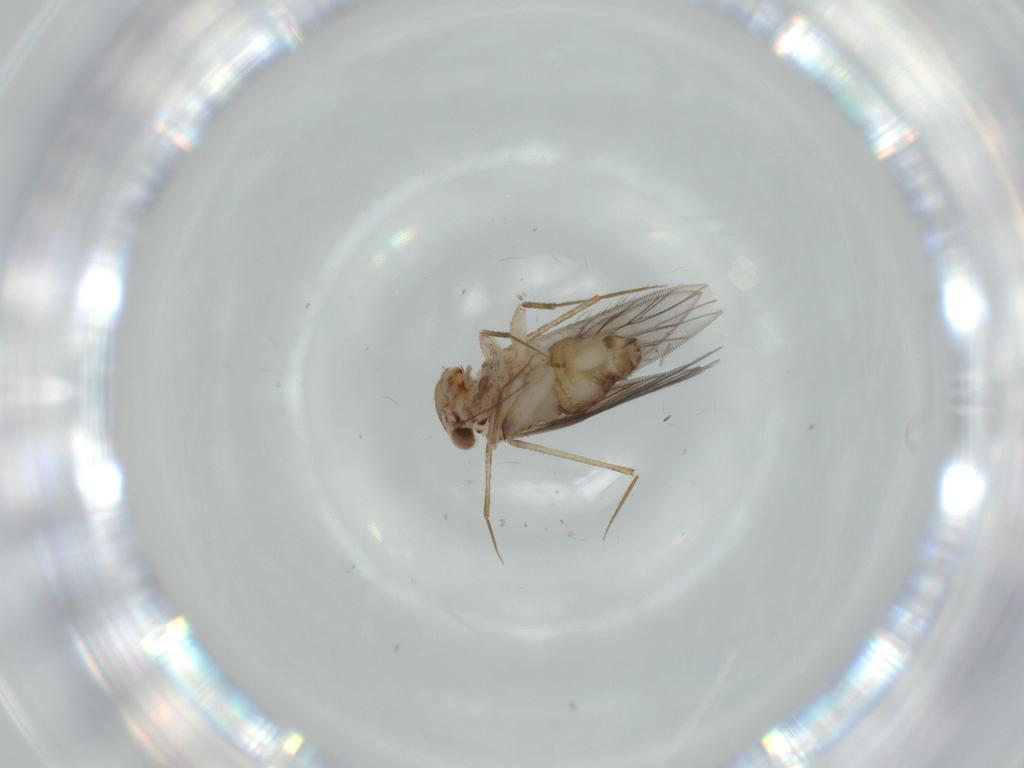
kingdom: Animalia
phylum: Arthropoda
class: Insecta
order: Psocodea
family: Lepidopsocidae
